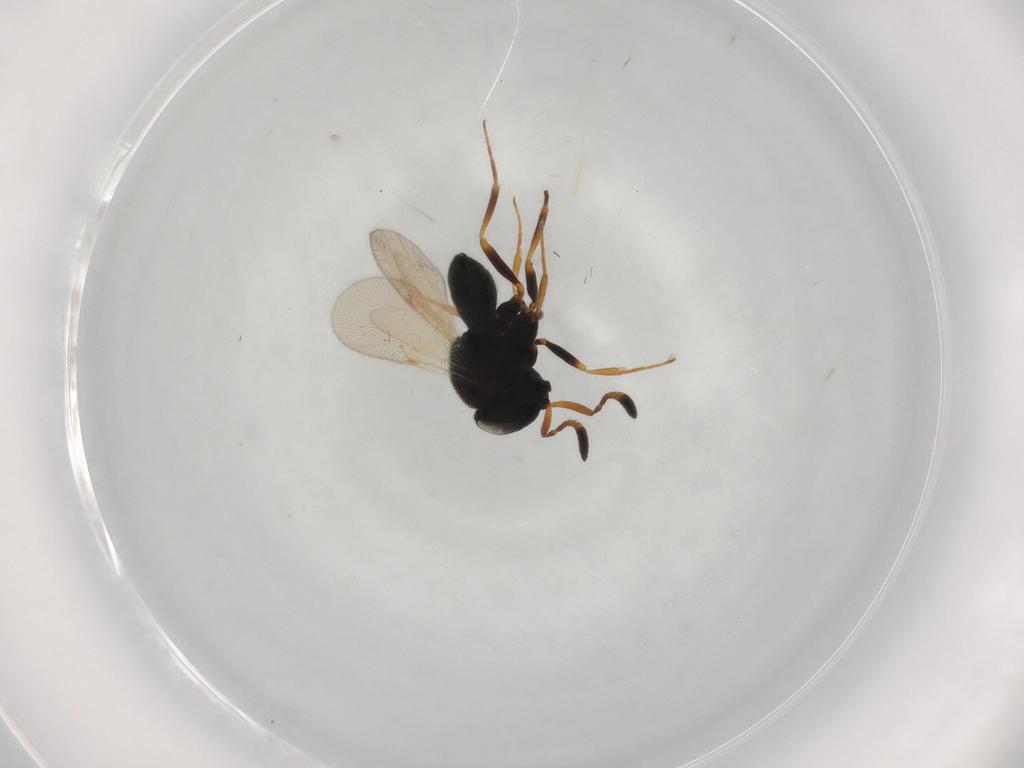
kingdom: Animalia
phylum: Arthropoda
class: Insecta
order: Hymenoptera
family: Scelionidae
